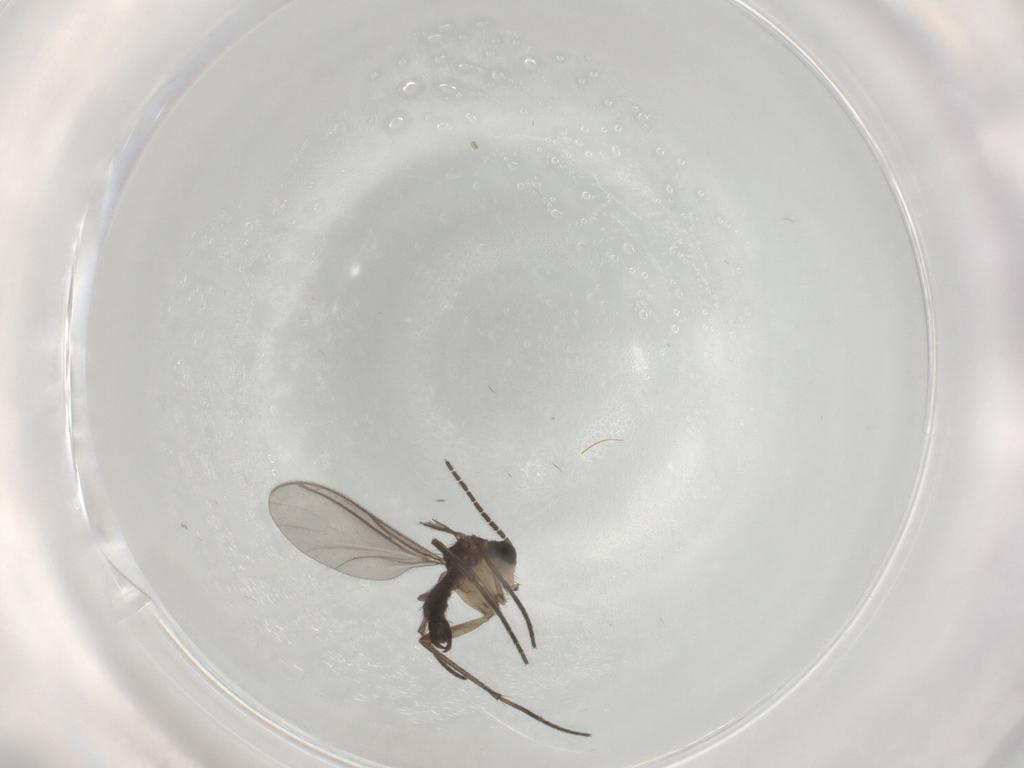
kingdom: Animalia
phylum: Arthropoda
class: Insecta
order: Diptera
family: Sciaridae
